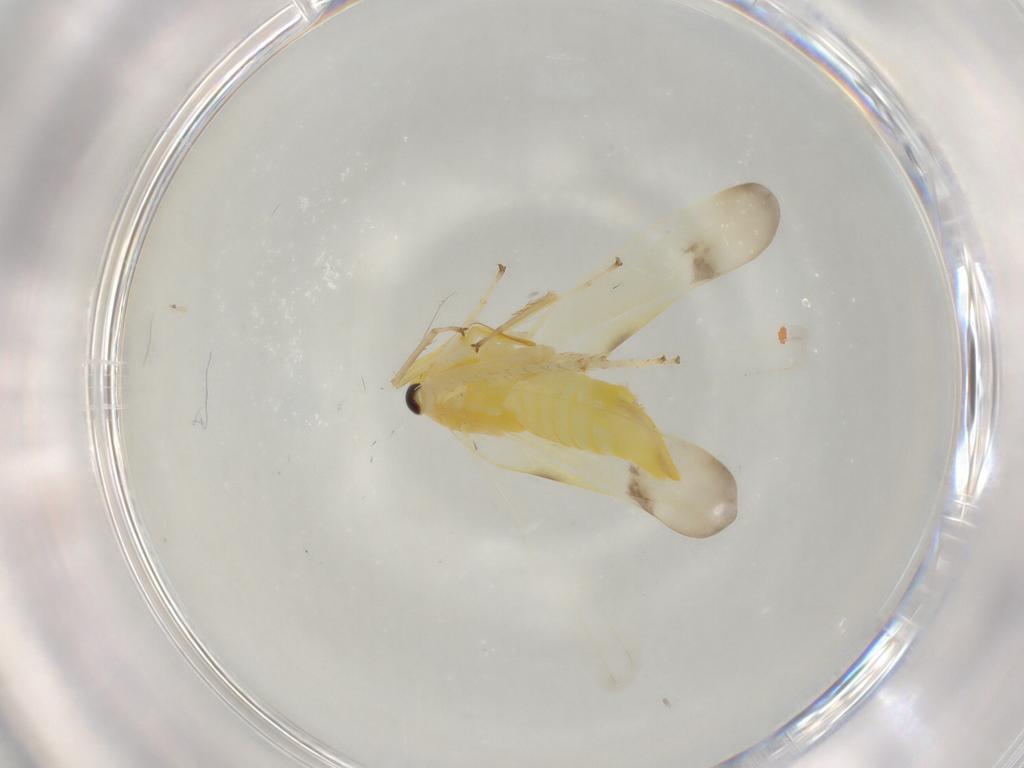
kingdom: Animalia
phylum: Arthropoda
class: Insecta
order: Hemiptera
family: Cicadellidae
